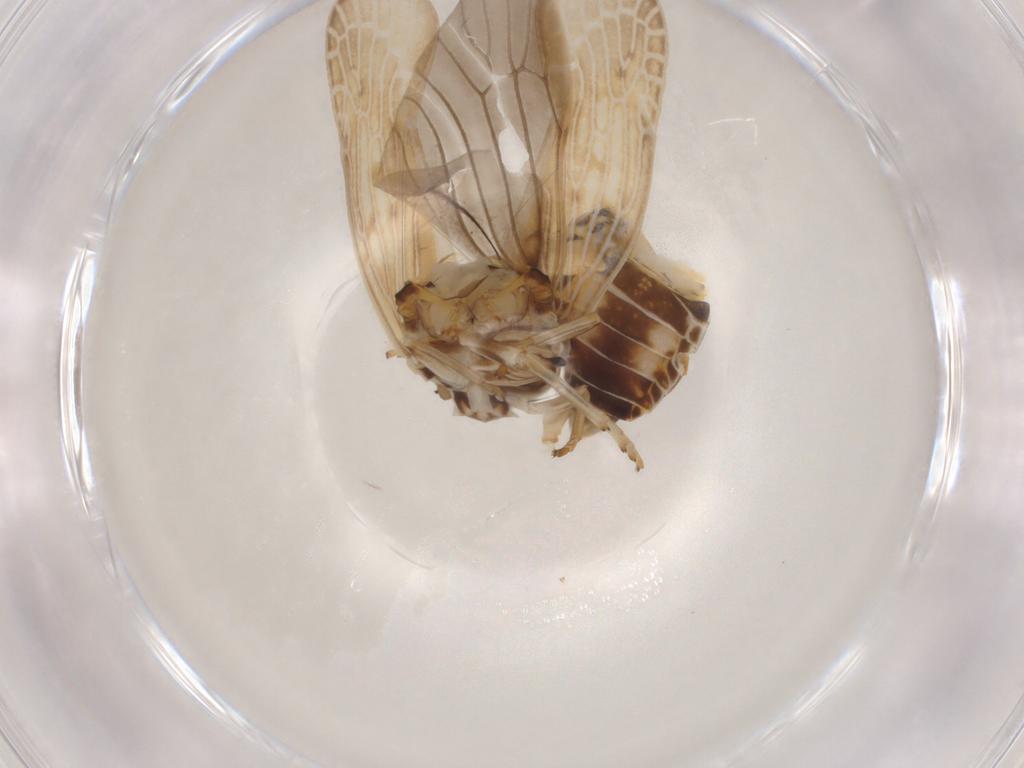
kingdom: Animalia
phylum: Arthropoda
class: Insecta
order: Hemiptera
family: Achilidae
